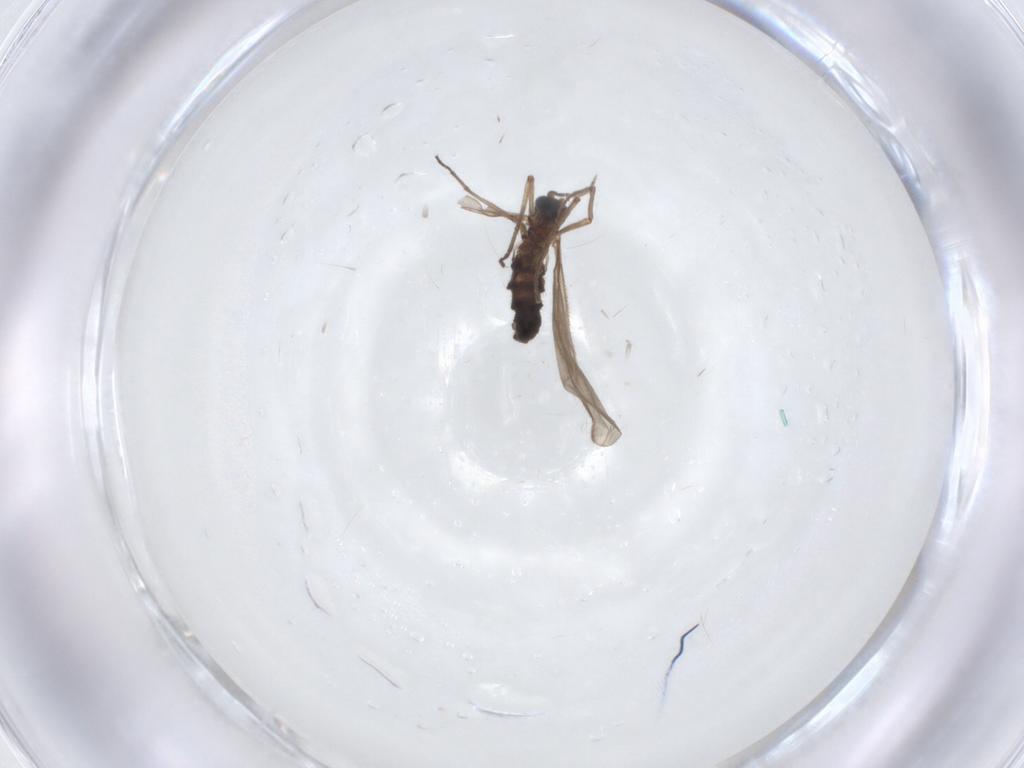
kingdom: Animalia
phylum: Arthropoda
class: Insecta
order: Diptera
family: Sciaridae
